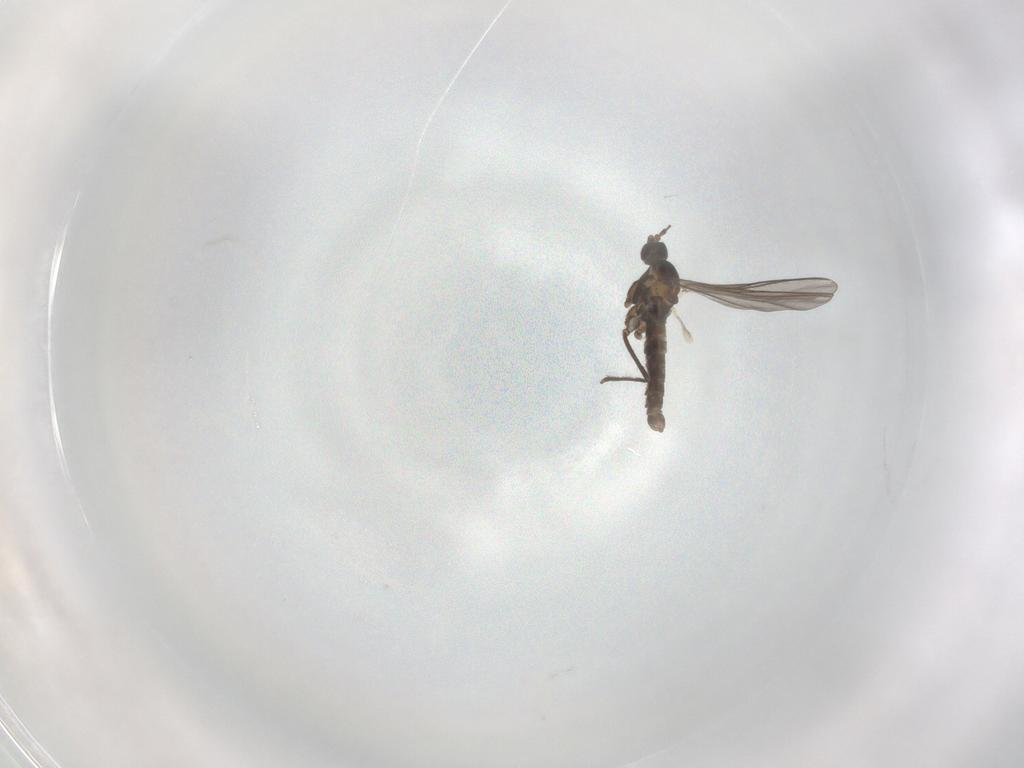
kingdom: Animalia
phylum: Arthropoda
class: Insecta
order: Diptera
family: Cecidomyiidae
